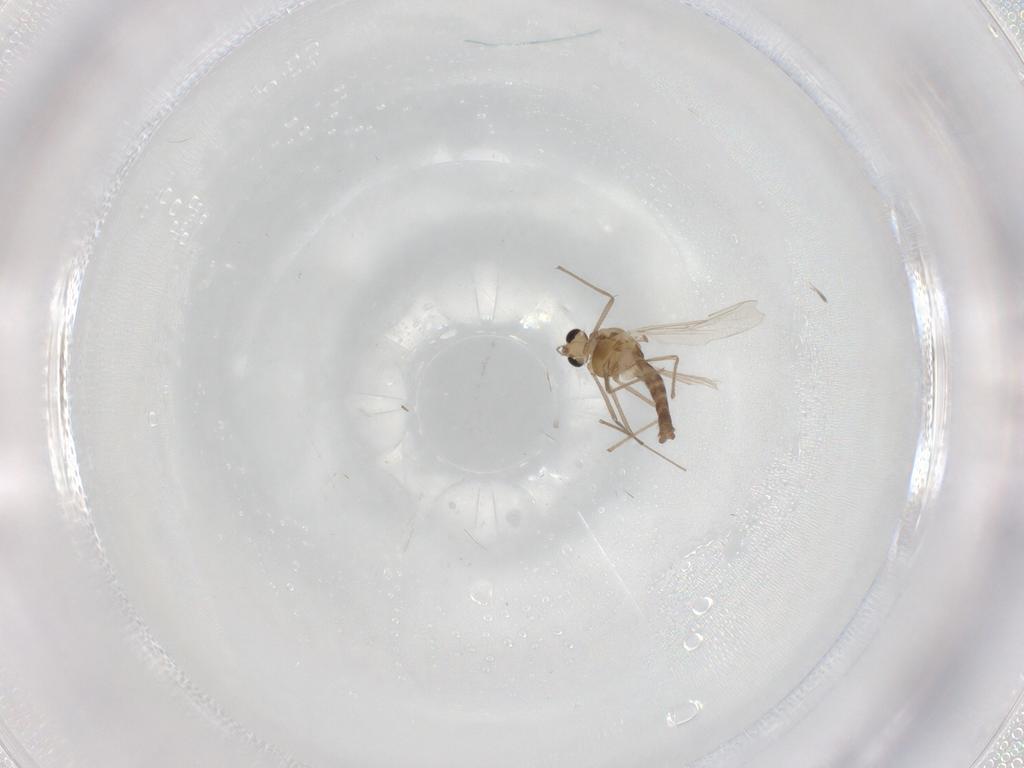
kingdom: Animalia
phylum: Arthropoda
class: Insecta
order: Diptera
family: Chironomidae
